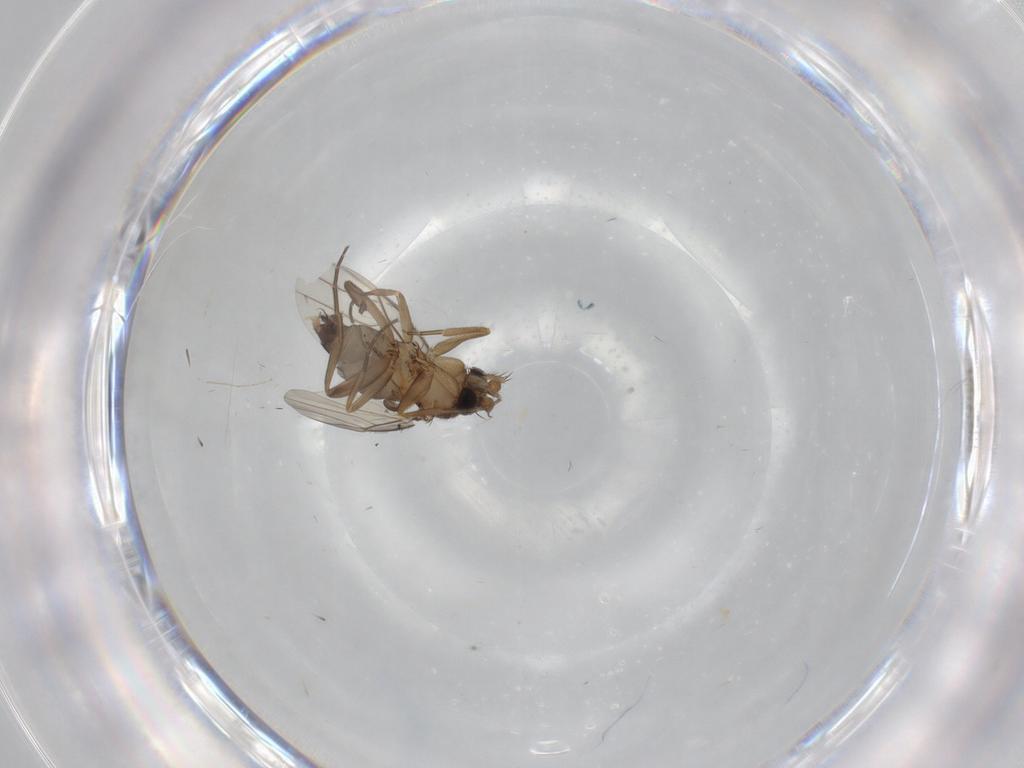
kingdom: Animalia
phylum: Arthropoda
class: Insecta
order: Diptera
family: Phoridae
